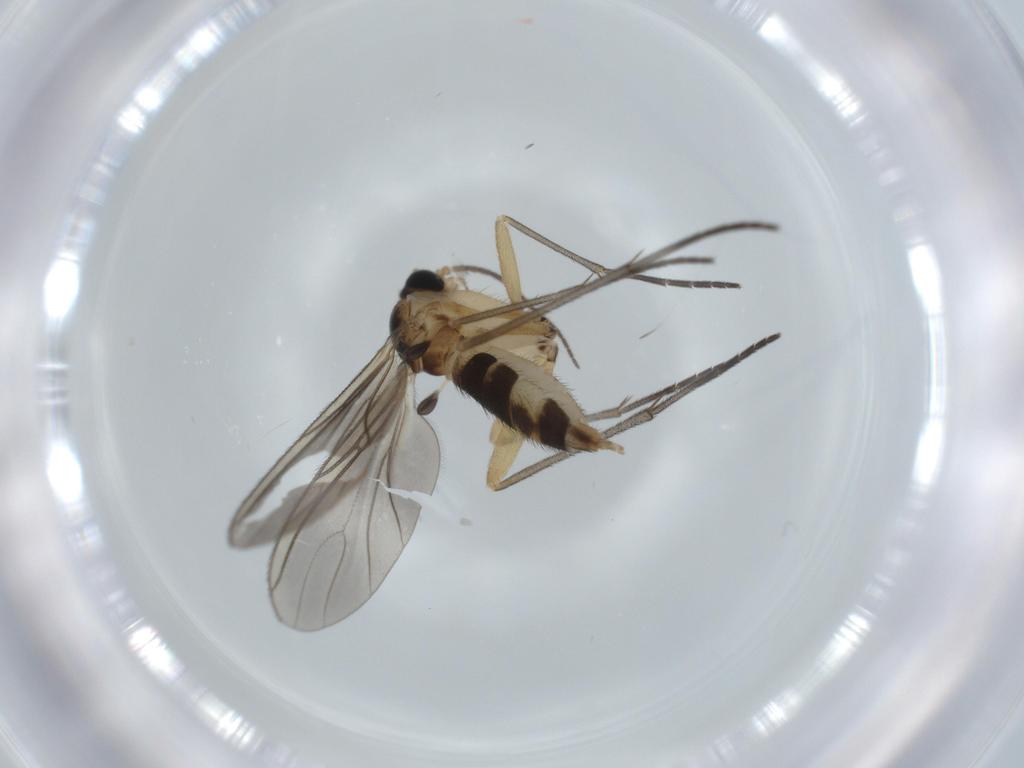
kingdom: Animalia
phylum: Arthropoda
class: Insecta
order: Diptera
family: Sciaridae
